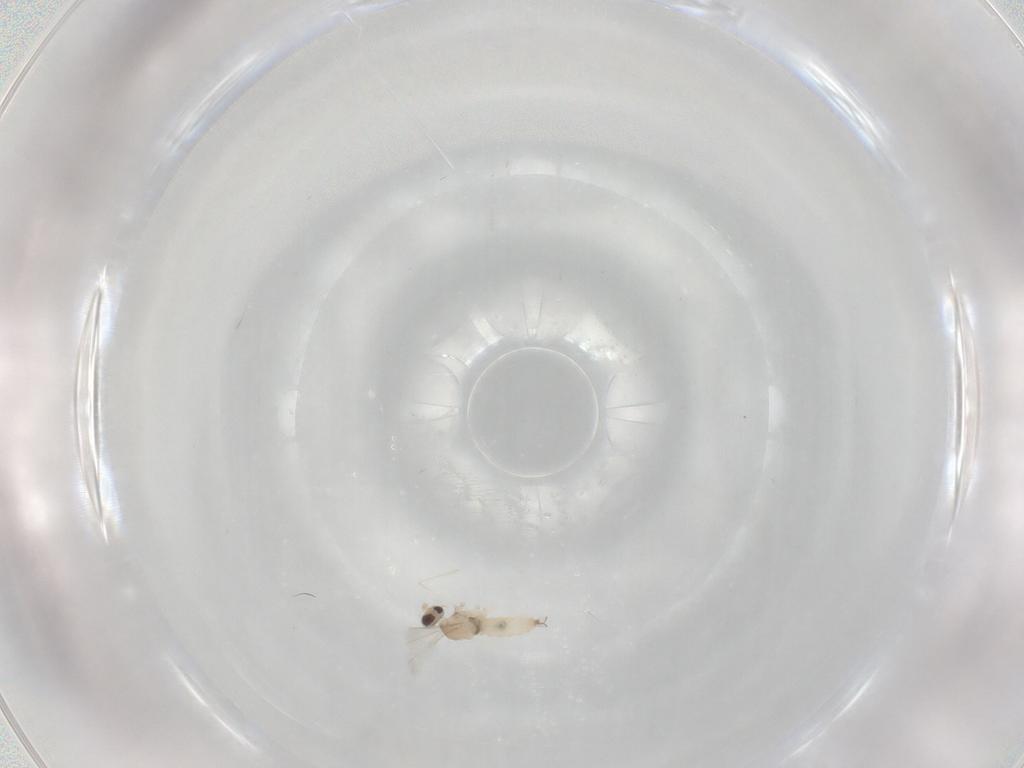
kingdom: Animalia
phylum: Arthropoda
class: Insecta
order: Diptera
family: Cecidomyiidae
